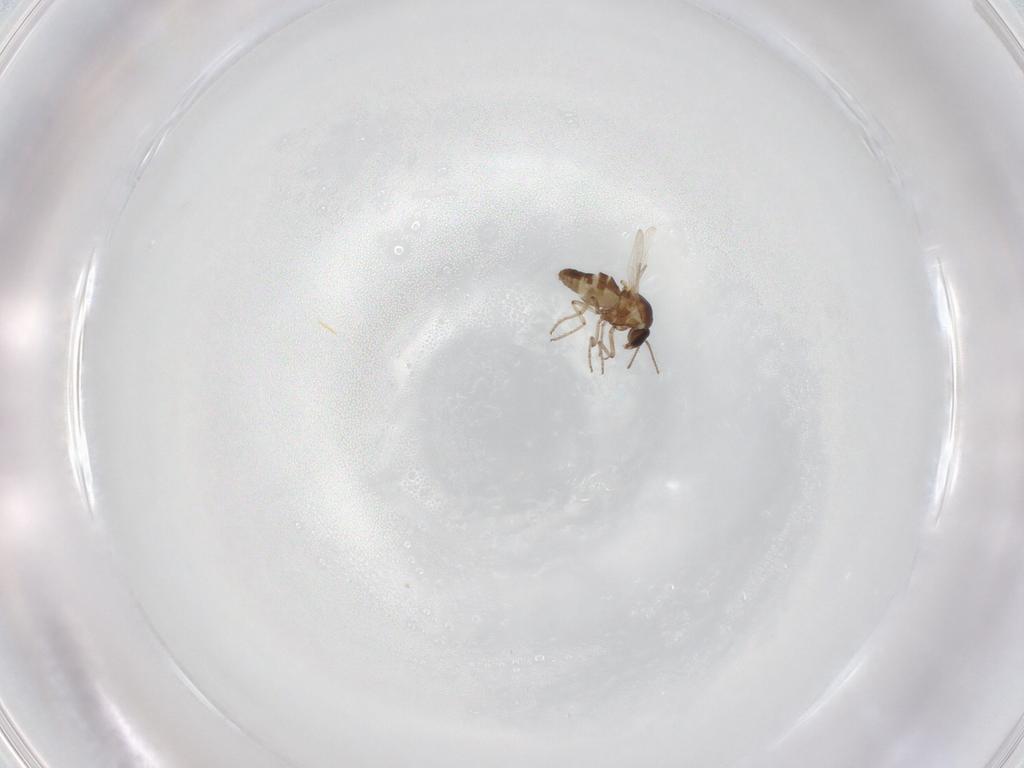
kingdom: Animalia
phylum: Arthropoda
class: Insecta
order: Diptera
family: Ceratopogonidae
